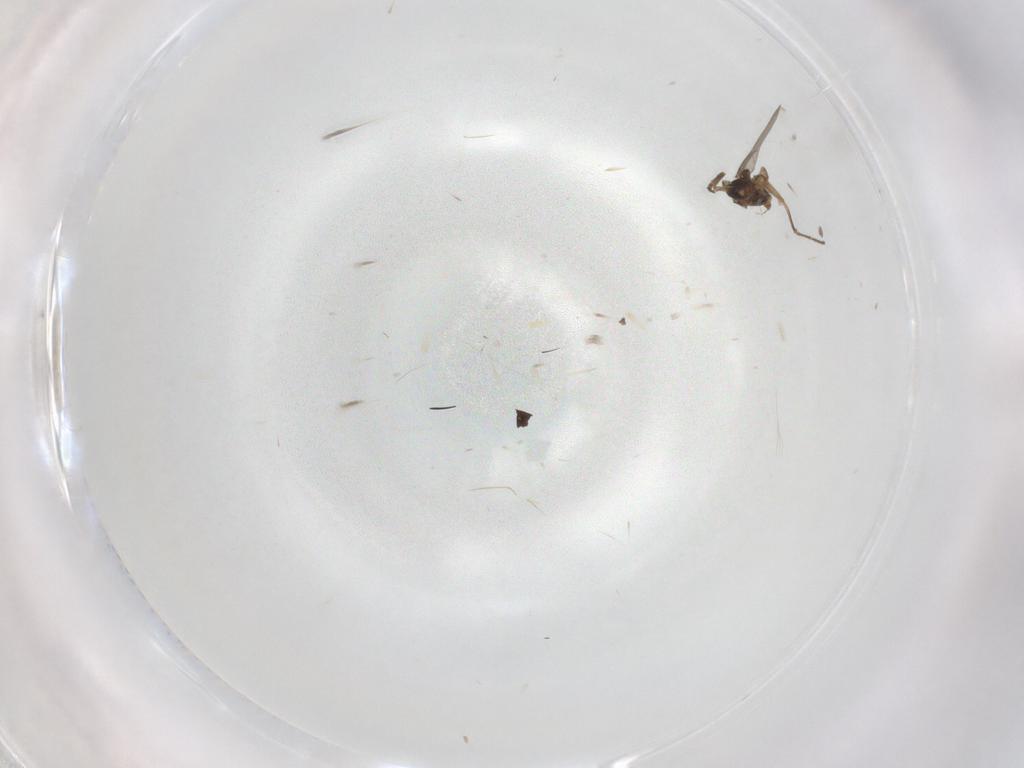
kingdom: Animalia
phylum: Arthropoda
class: Insecta
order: Diptera
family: Phoridae
